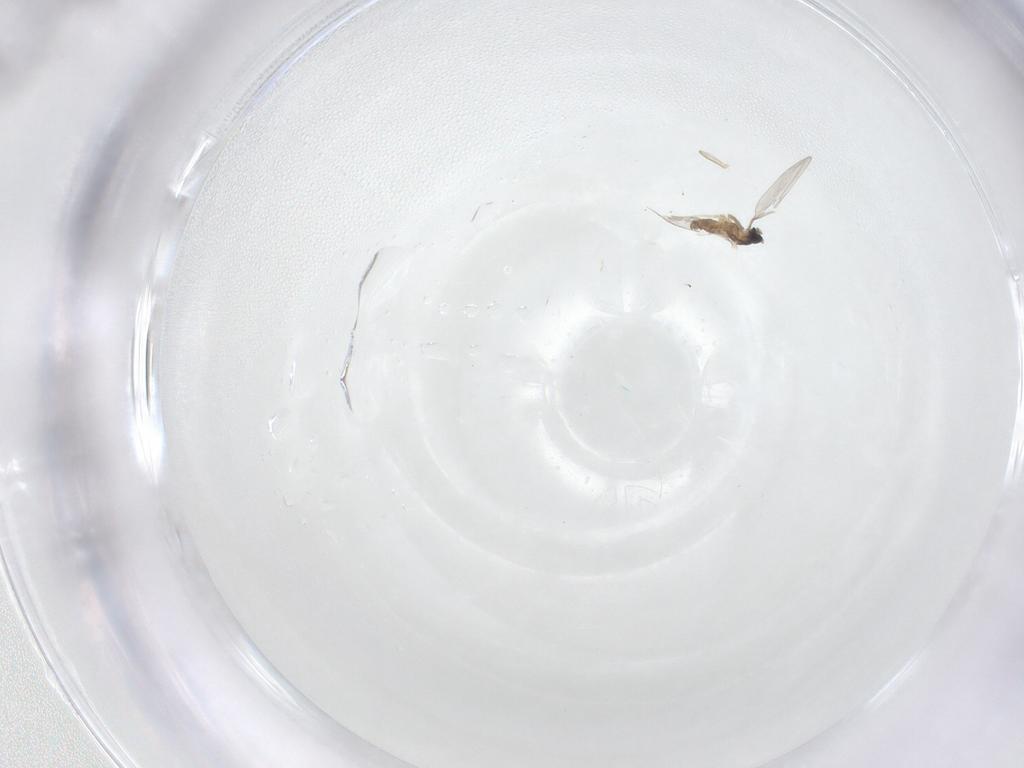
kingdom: Animalia
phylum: Arthropoda
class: Insecta
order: Diptera
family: Cecidomyiidae
